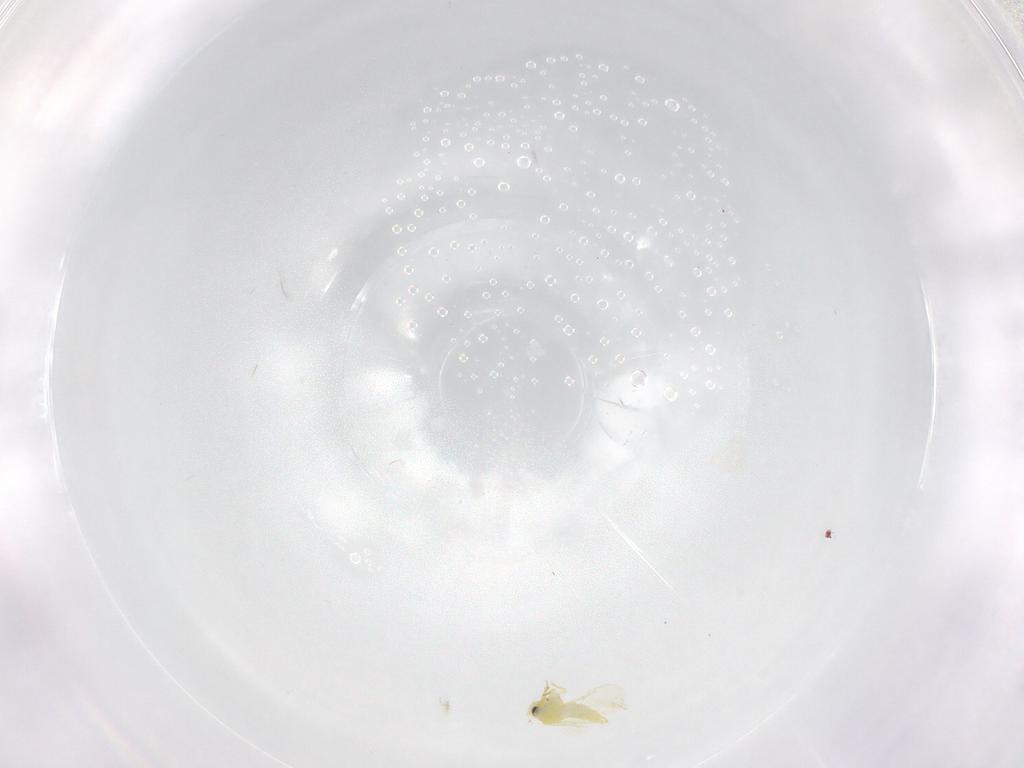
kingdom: Animalia
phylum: Arthropoda
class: Insecta
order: Hemiptera
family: Aleyrodidae
